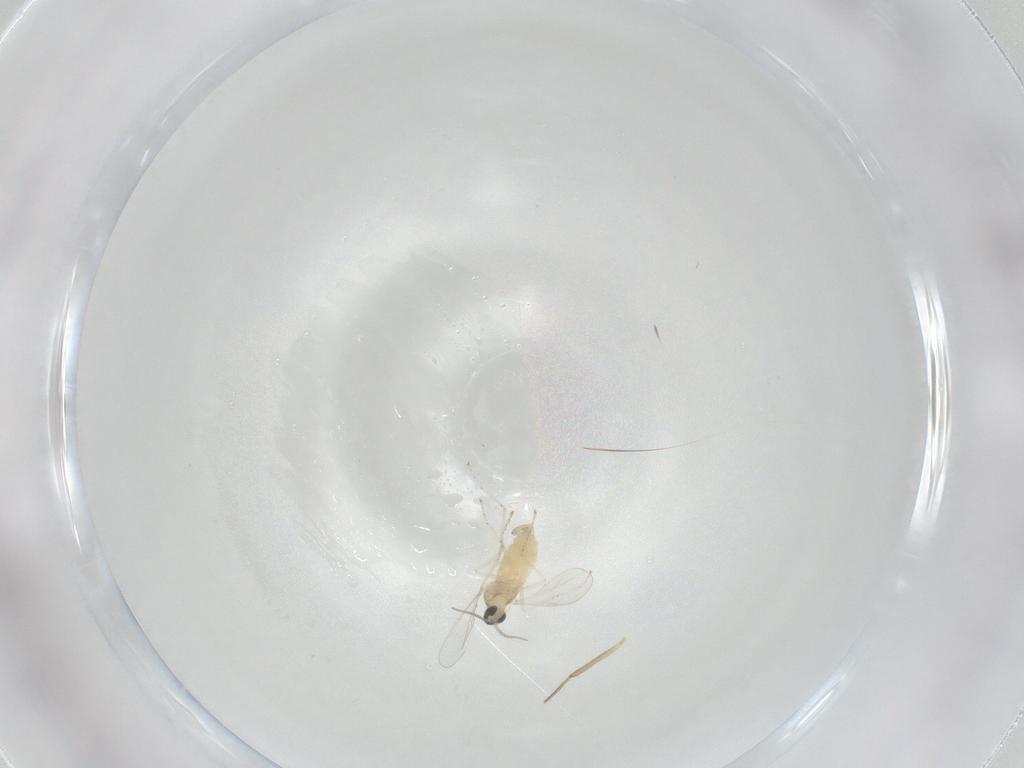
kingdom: Animalia
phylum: Arthropoda
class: Insecta
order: Diptera
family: Cecidomyiidae
